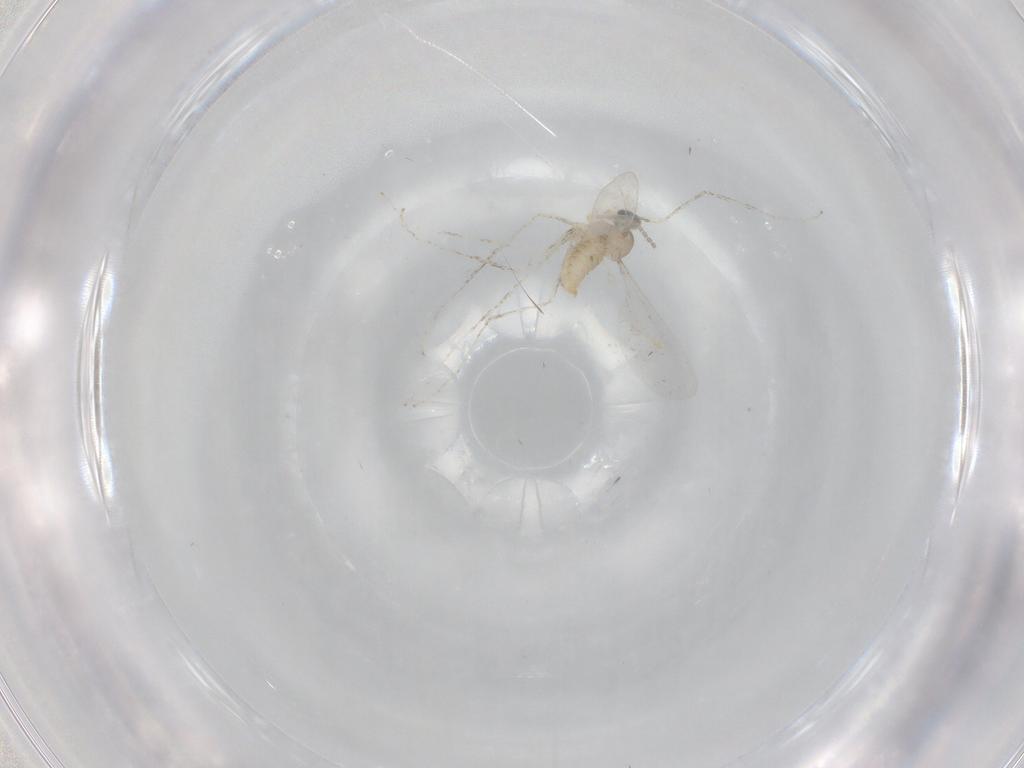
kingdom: Animalia
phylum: Arthropoda
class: Insecta
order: Diptera
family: Cecidomyiidae
